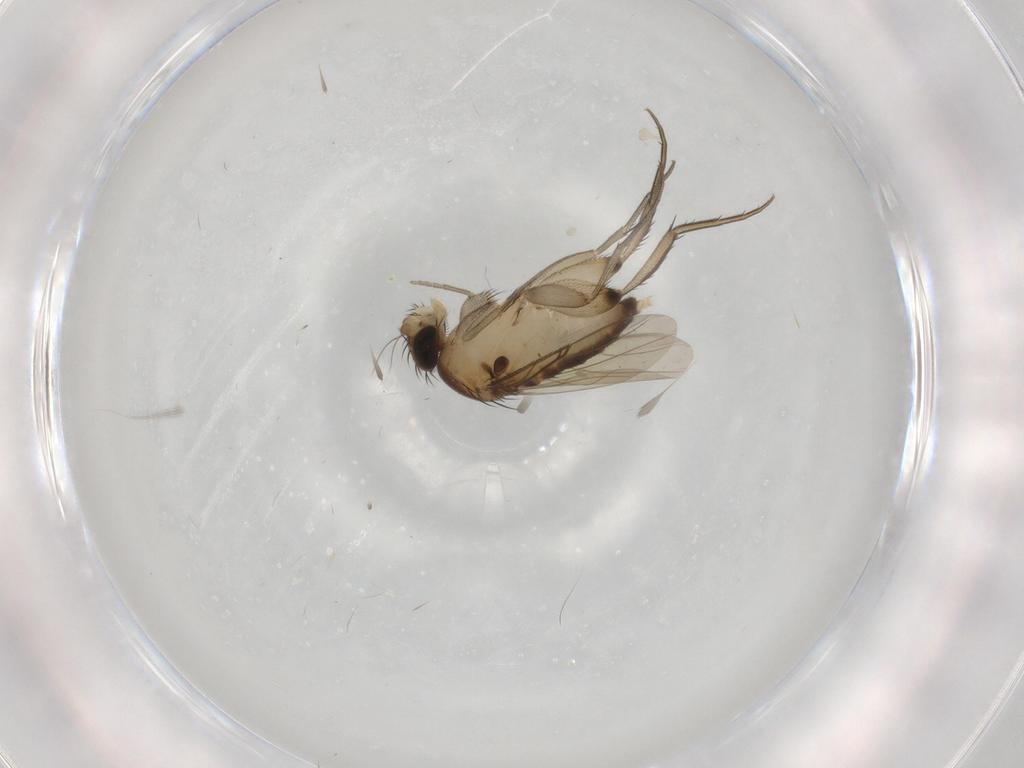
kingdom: Animalia
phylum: Arthropoda
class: Insecta
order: Diptera
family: Phoridae
